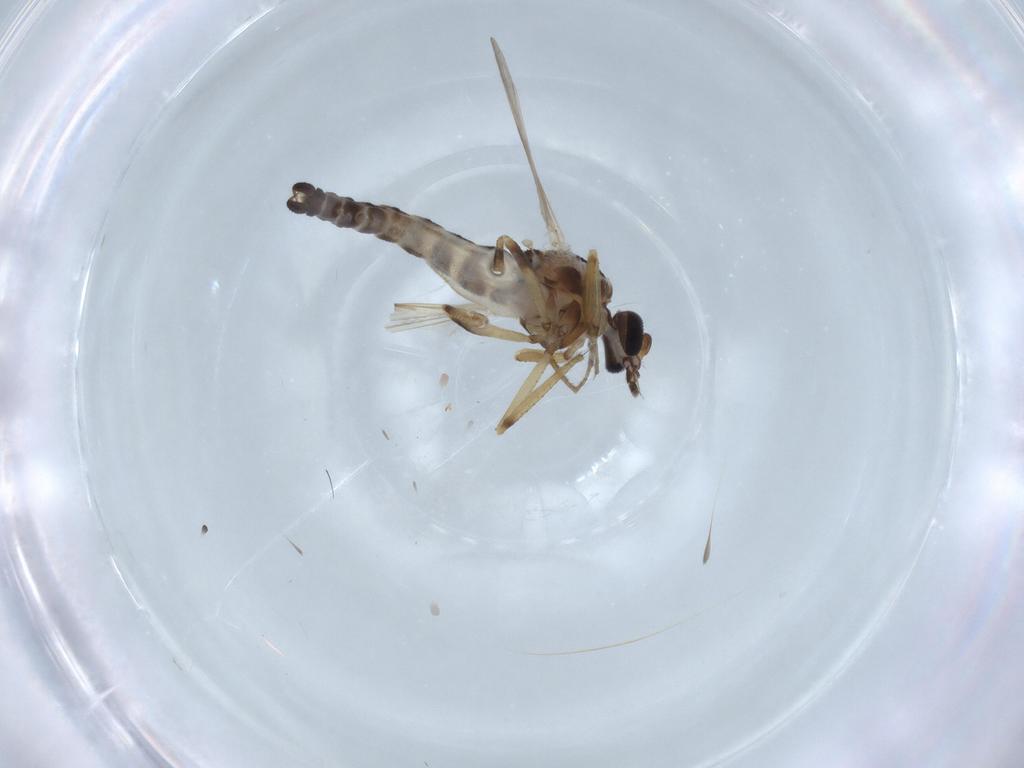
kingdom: Animalia
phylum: Arthropoda
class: Insecta
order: Diptera
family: Ceratopogonidae
